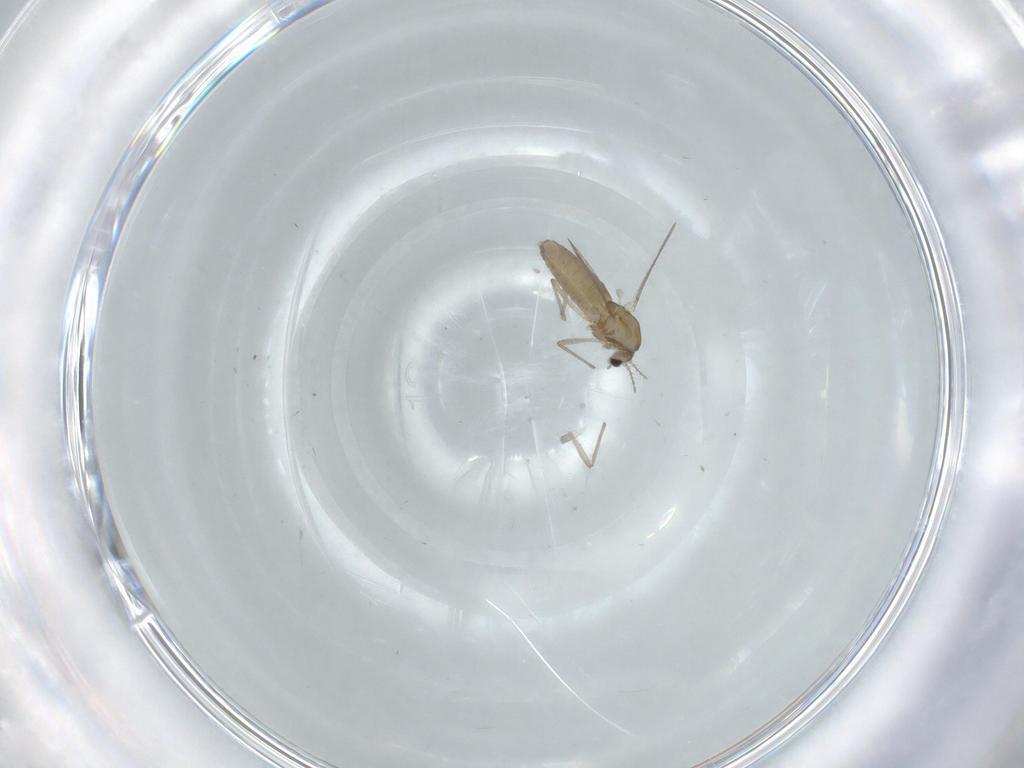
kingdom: Animalia
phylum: Arthropoda
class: Insecta
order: Diptera
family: Chironomidae
